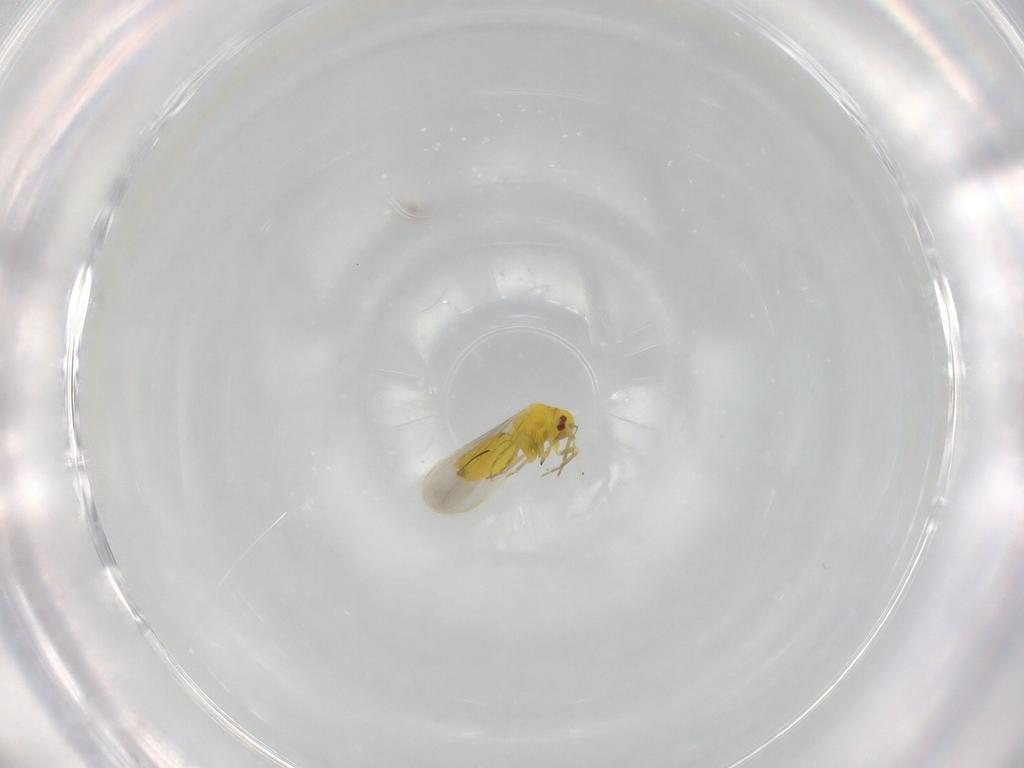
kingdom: Animalia
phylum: Arthropoda
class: Insecta
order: Hemiptera
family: Aleyrodidae
